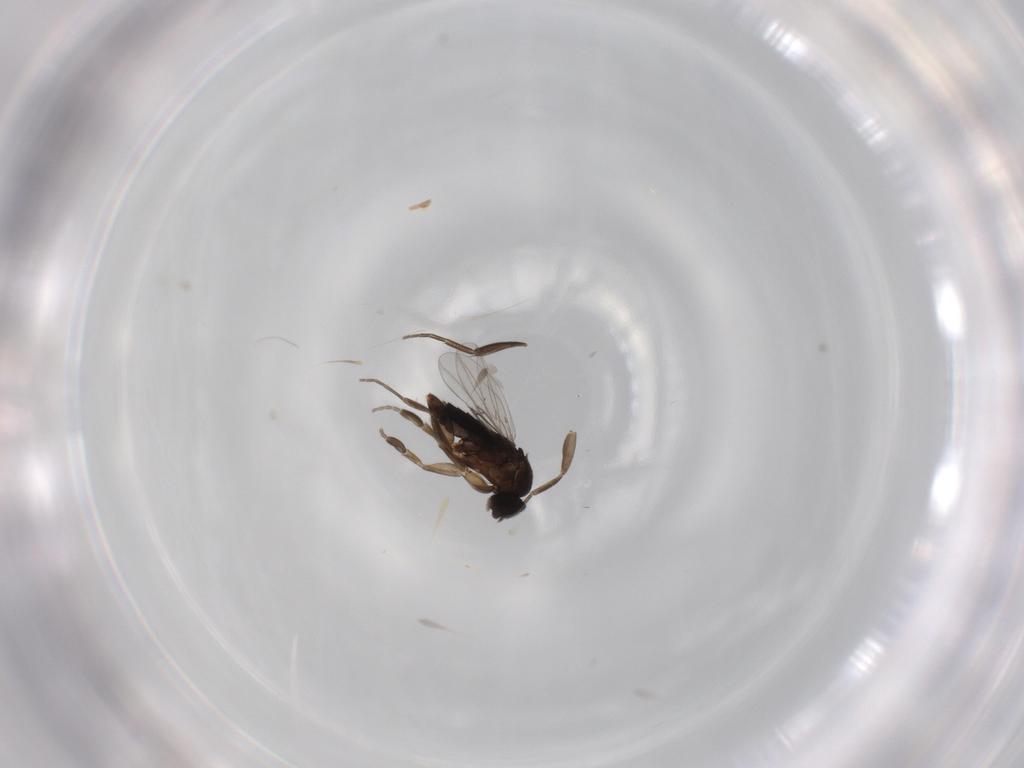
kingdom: Animalia
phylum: Arthropoda
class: Insecta
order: Diptera
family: Phoridae
